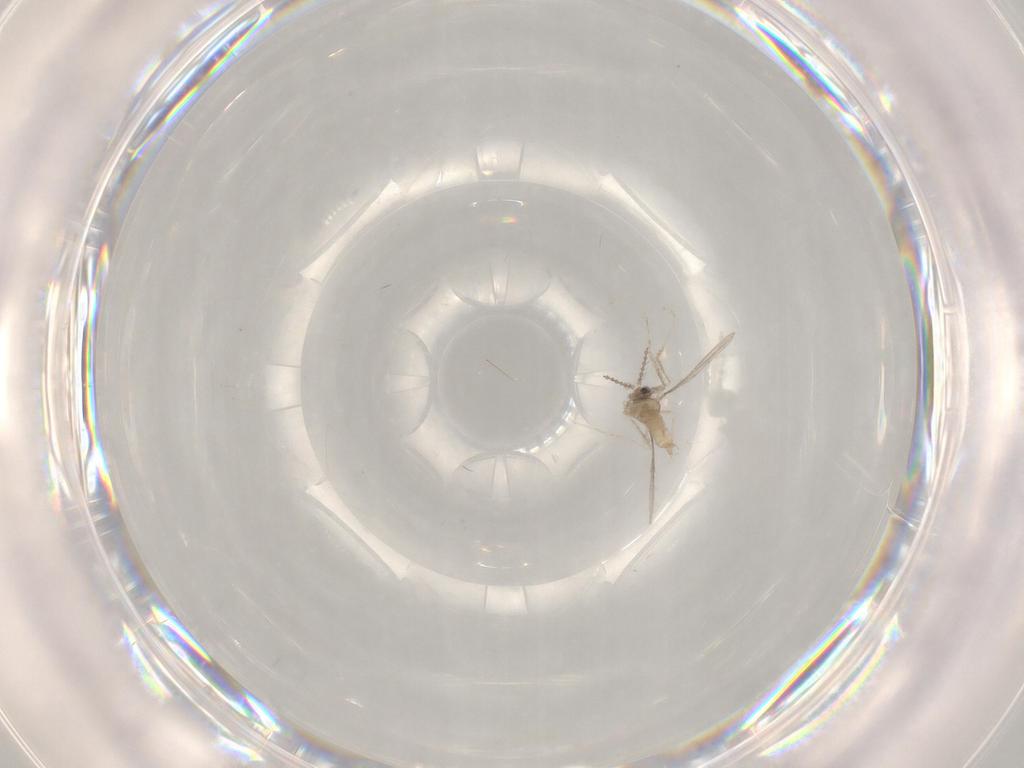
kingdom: Animalia
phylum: Arthropoda
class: Insecta
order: Diptera
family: Cecidomyiidae
